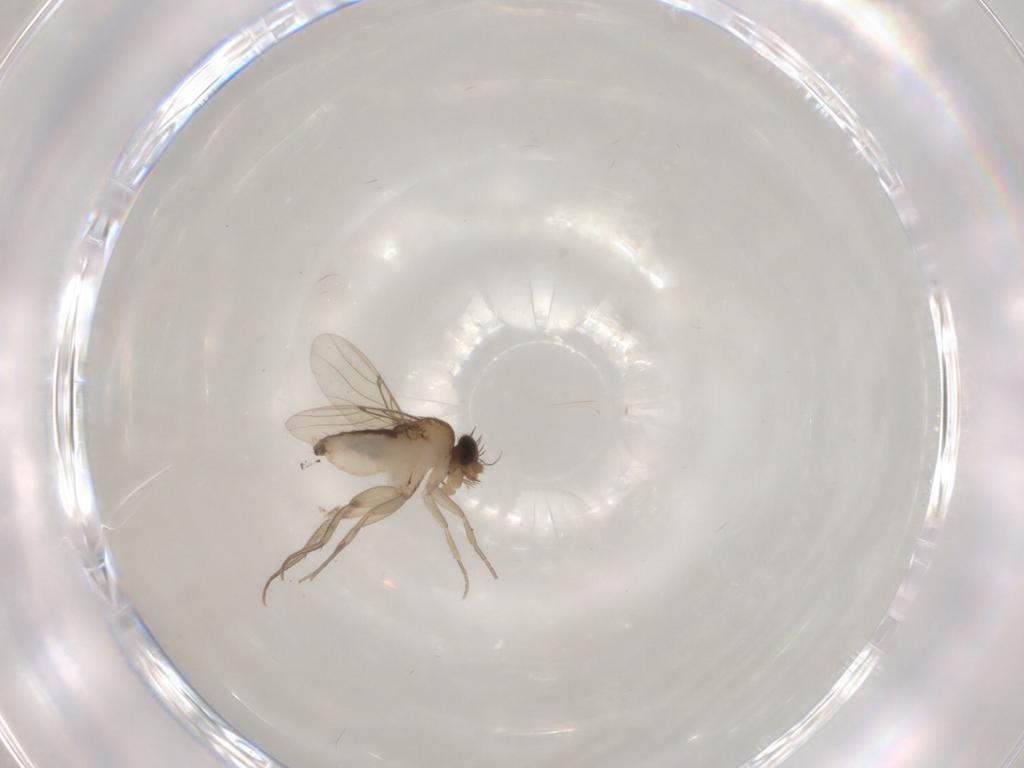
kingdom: Animalia
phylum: Arthropoda
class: Insecta
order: Diptera
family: Phoridae
